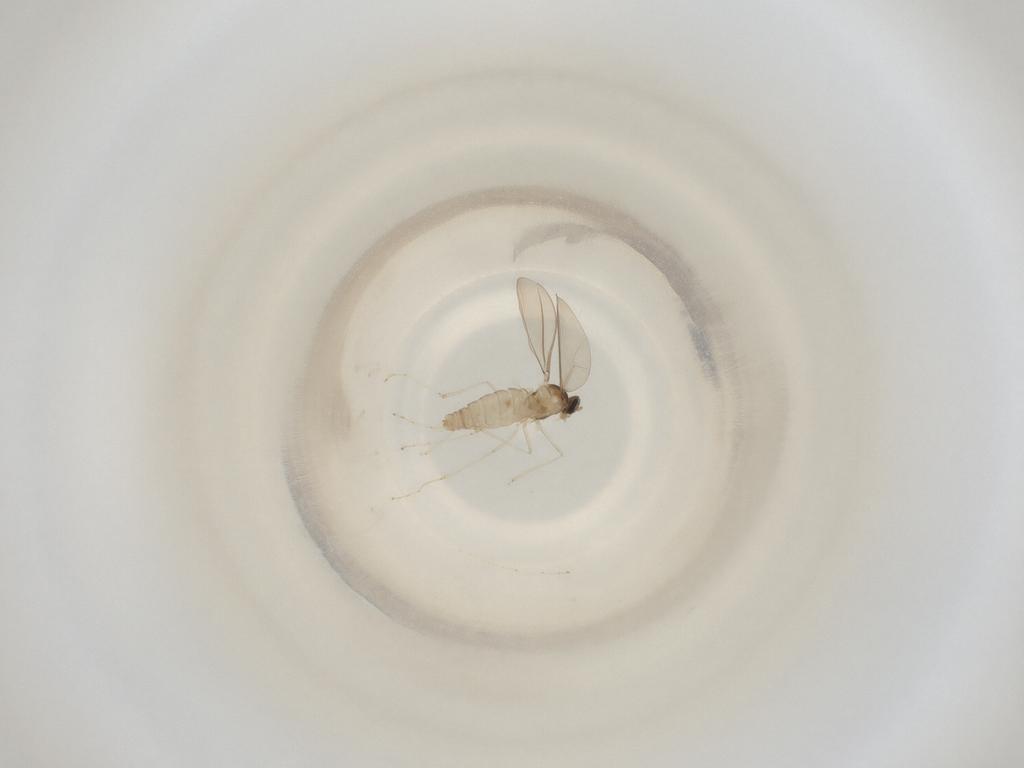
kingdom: Animalia
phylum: Arthropoda
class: Insecta
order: Diptera
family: Cecidomyiidae
